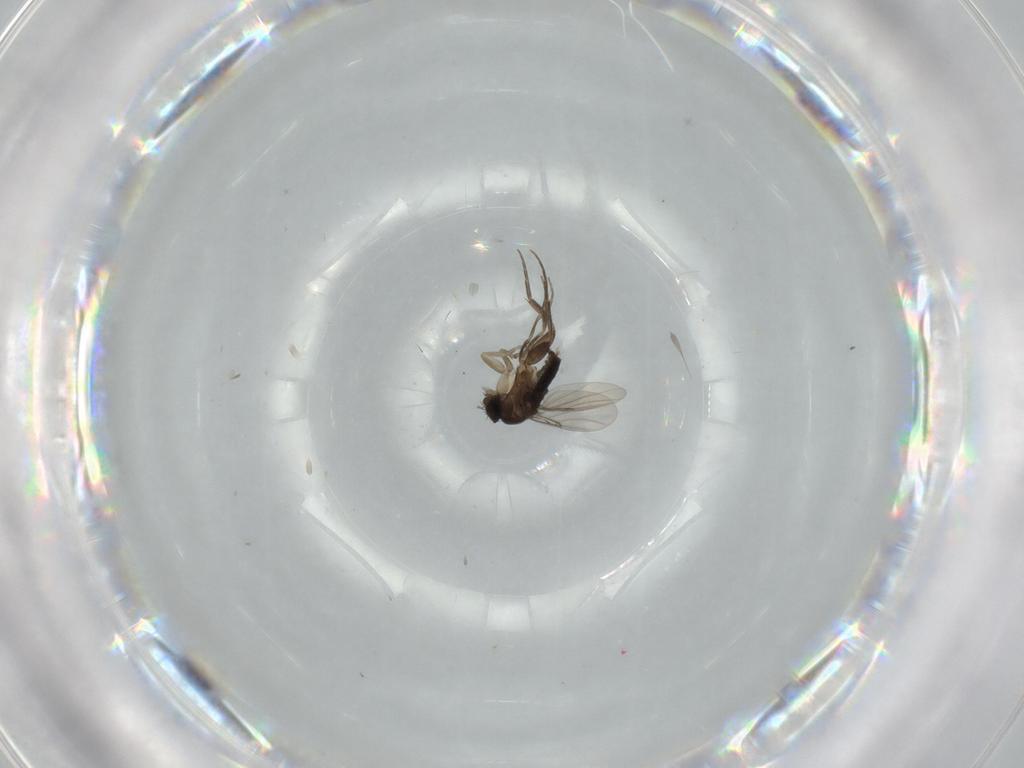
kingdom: Animalia
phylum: Arthropoda
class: Insecta
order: Diptera
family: Phoridae
